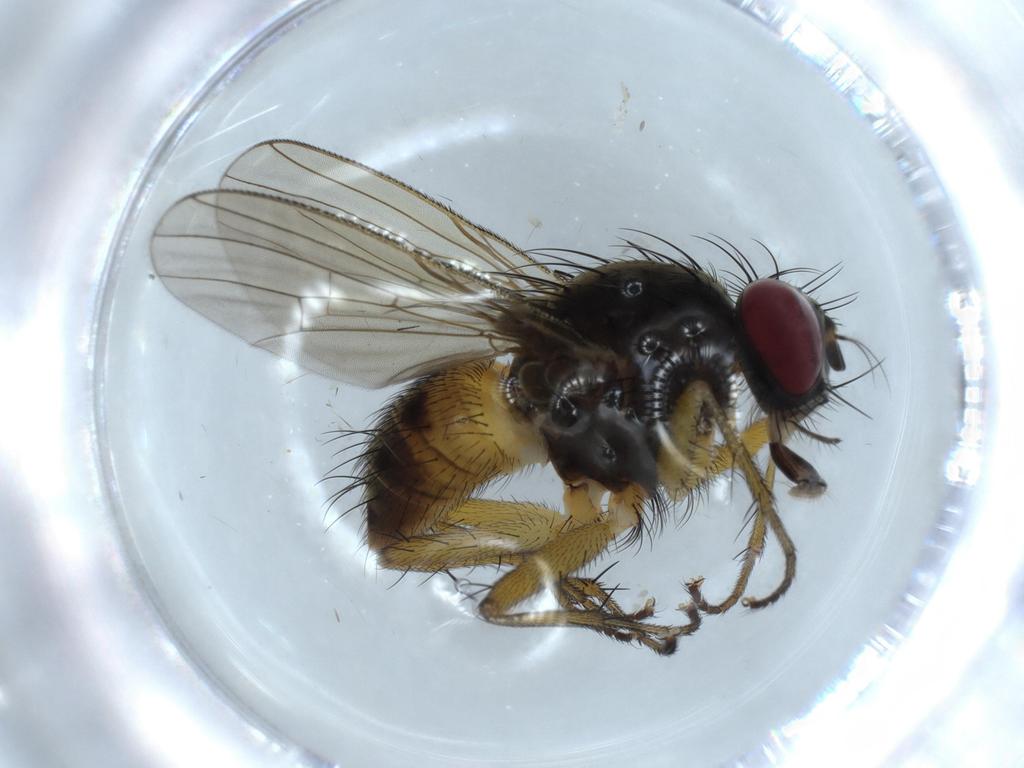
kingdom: Animalia
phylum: Arthropoda
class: Insecta
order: Diptera
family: Muscidae
